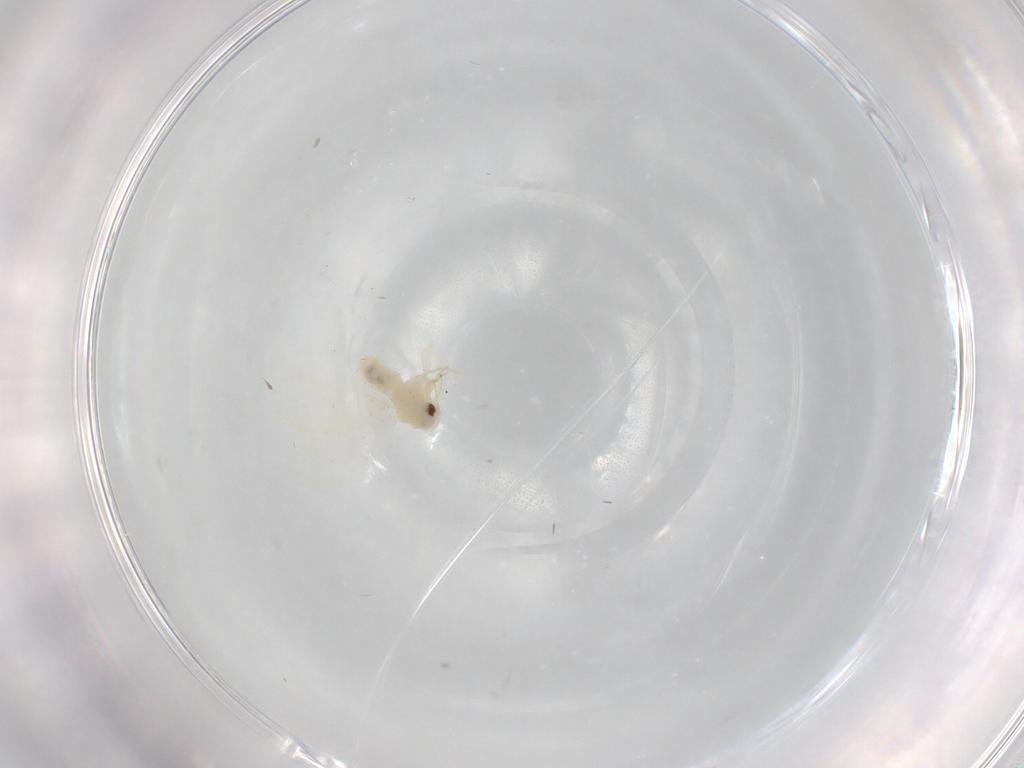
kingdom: Animalia
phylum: Arthropoda
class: Insecta
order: Hemiptera
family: Aleyrodidae
